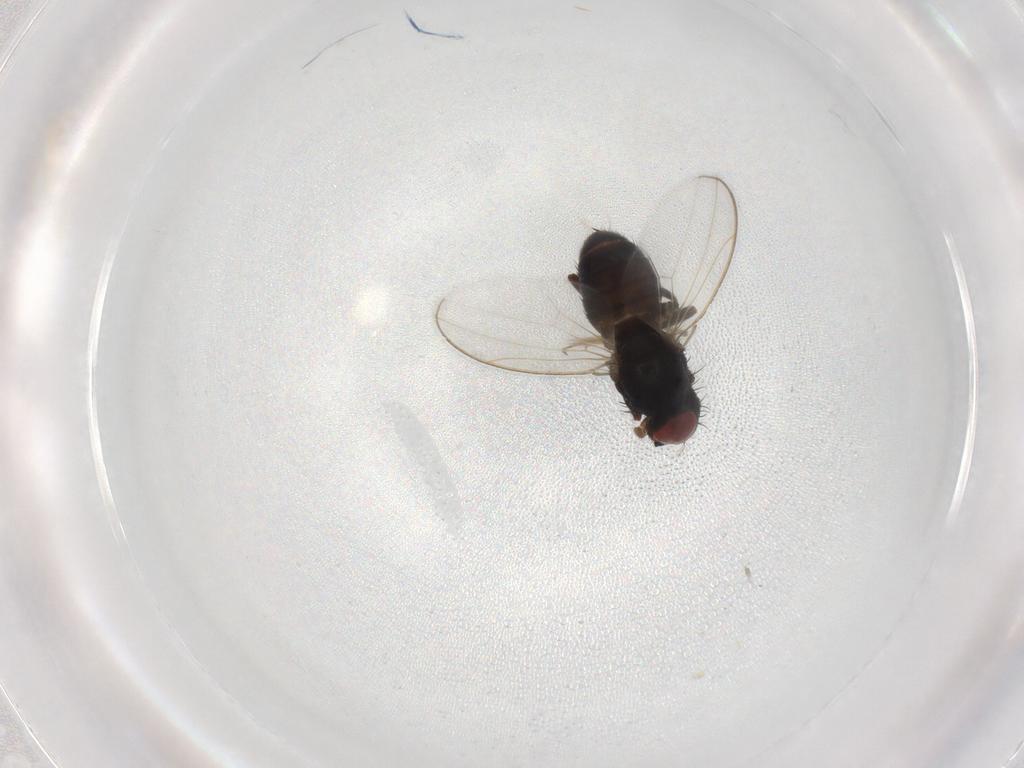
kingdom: Animalia
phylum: Arthropoda
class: Insecta
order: Diptera
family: Drosophilidae
